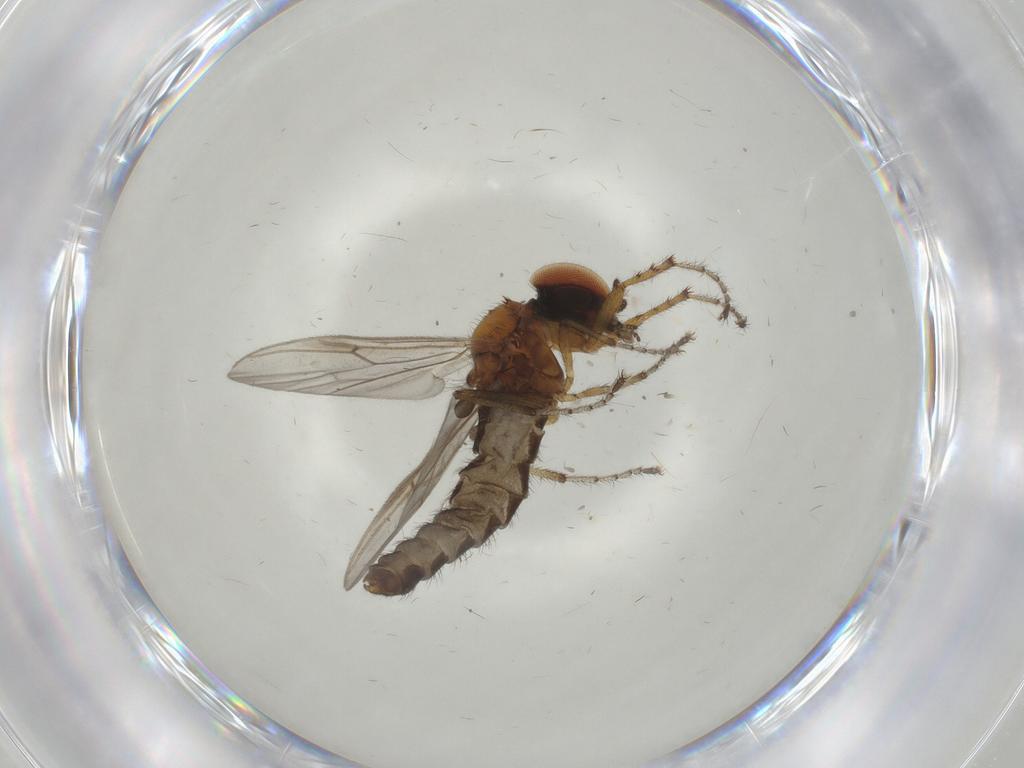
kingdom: Animalia
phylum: Arthropoda
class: Insecta
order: Diptera
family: Bibionidae
